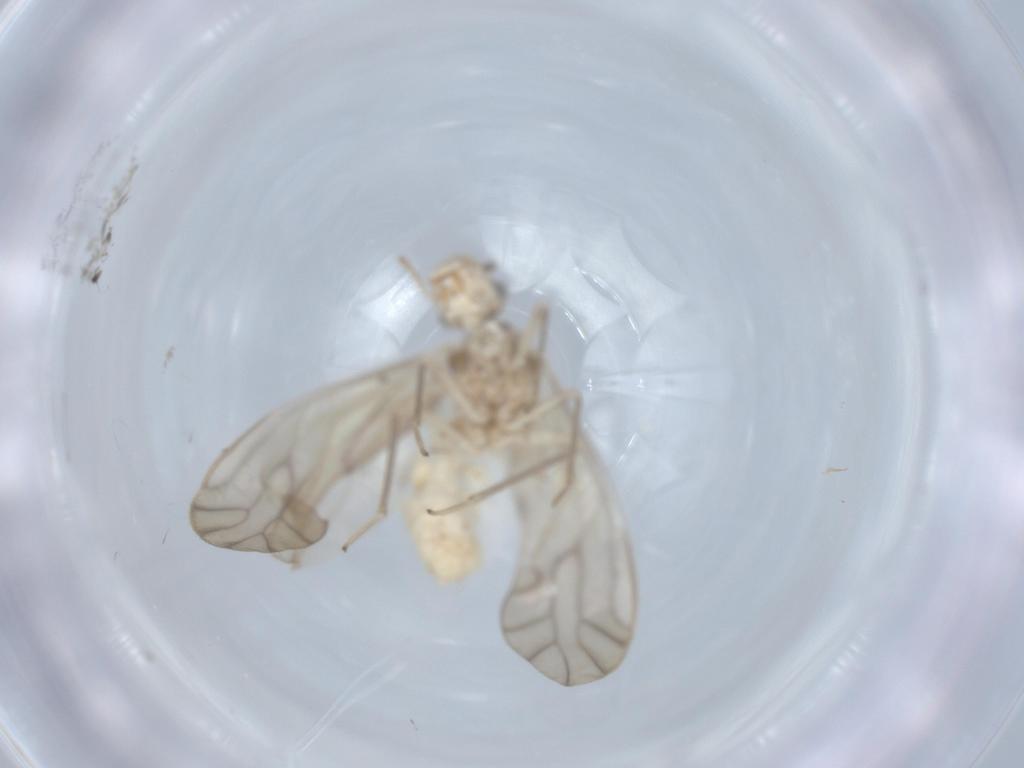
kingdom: Animalia
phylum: Arthropoda
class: Insecta
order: Psocodea
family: Caeciliusidae
